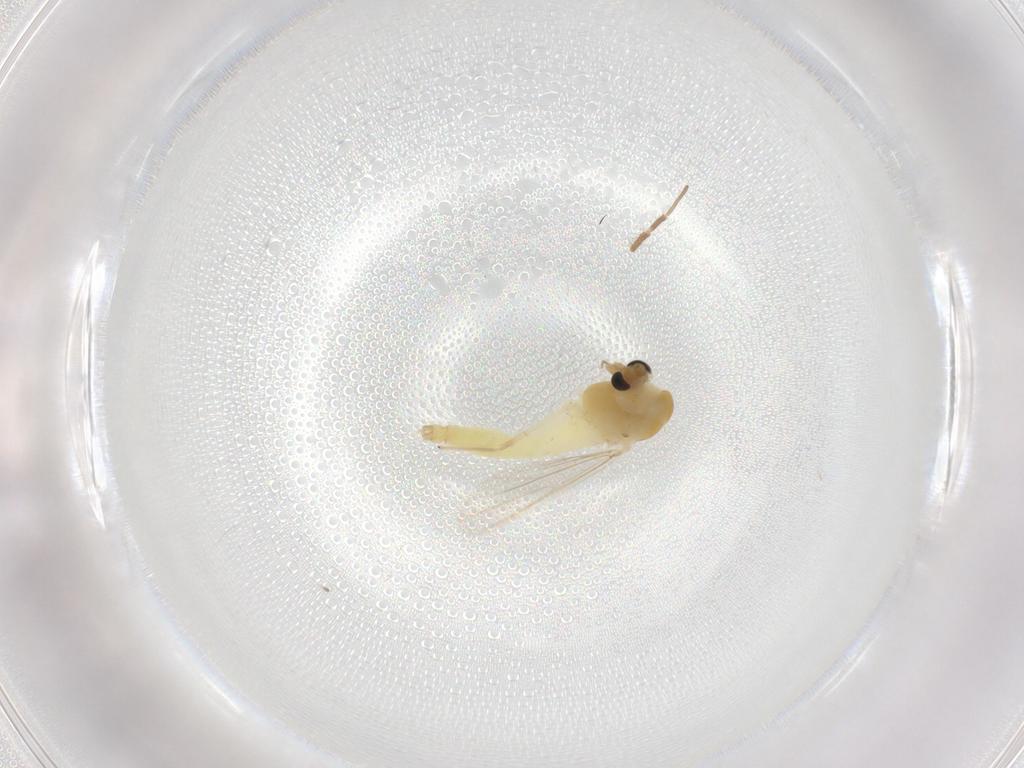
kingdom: Animalia
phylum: Arthropoda
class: Insecta
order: Diptera
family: Chironomidae
